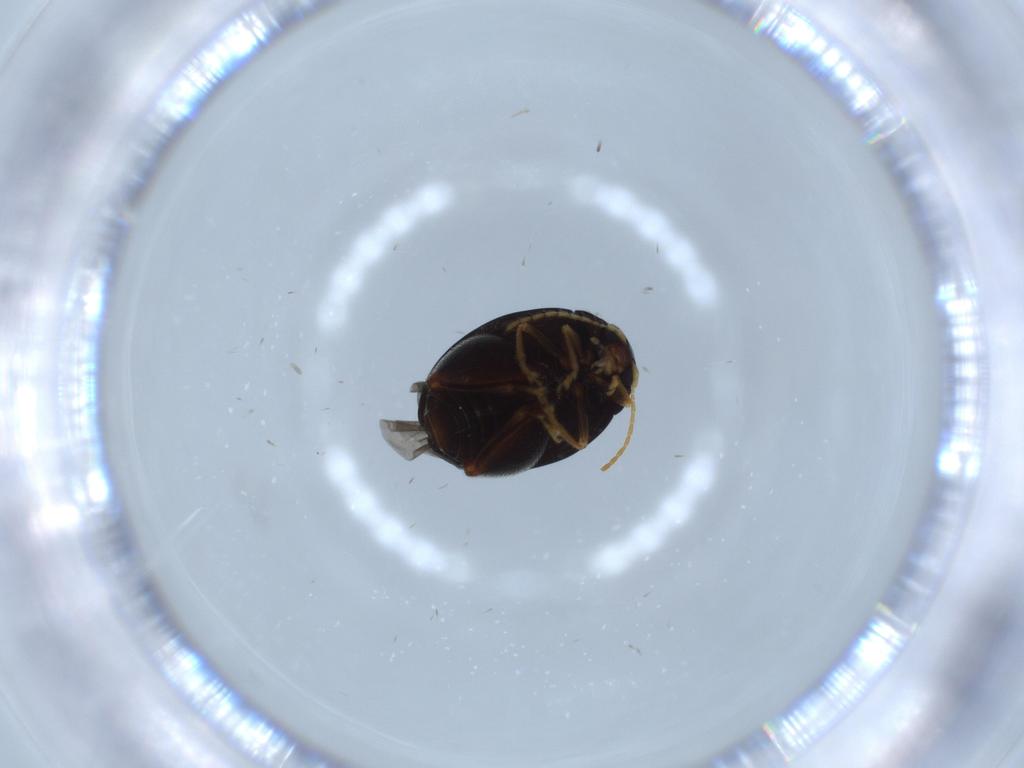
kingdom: Animalia
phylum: Arthropoda
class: Insecta
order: Coleoptera
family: Chrysomelidae
